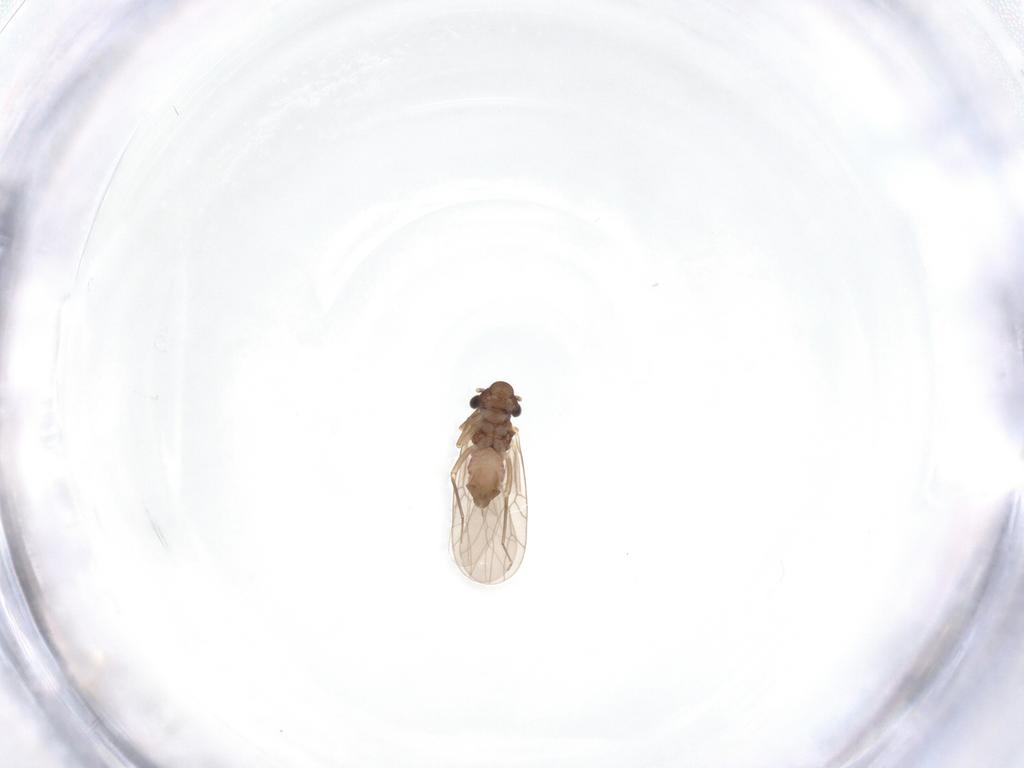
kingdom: Animalia
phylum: Arthropoda
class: Insecta
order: Psocodea
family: Lepidopsocidae
